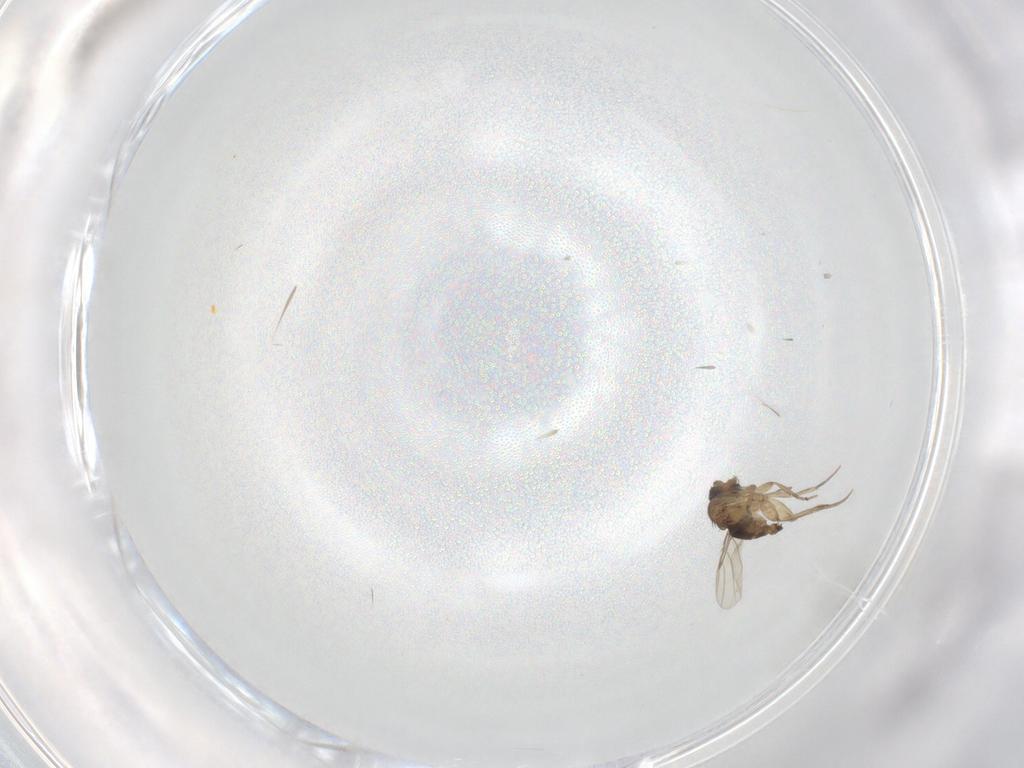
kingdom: Animalia
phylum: Arthropoda
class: Insecta
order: Diptera
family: Phoridae
